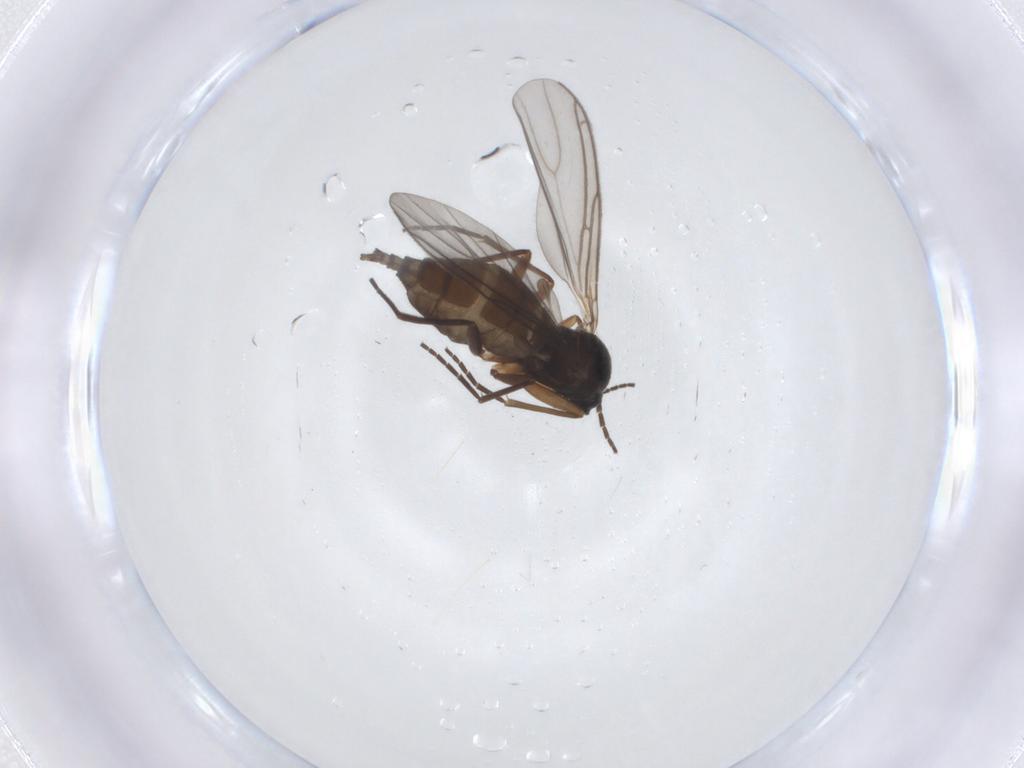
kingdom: Animalia
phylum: Arthropoda
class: Insecta
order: Diptera
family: Sciaridae
